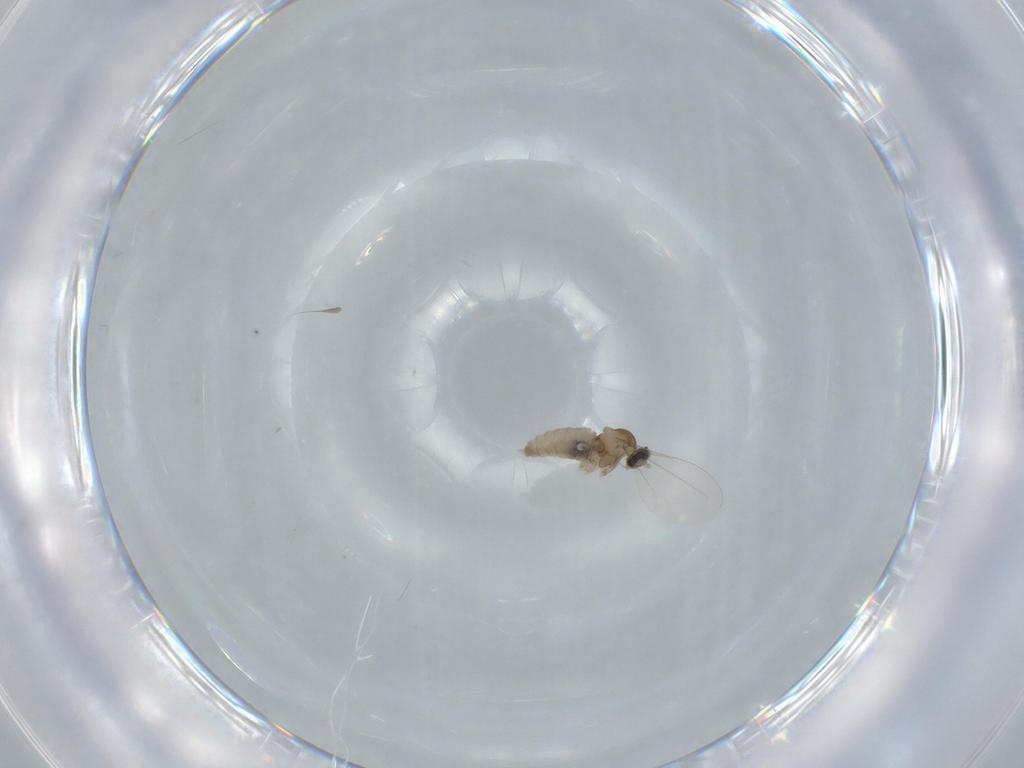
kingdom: Animalia
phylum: Arthropoda
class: Insecta
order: Diptera
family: Cecidomyiidae
